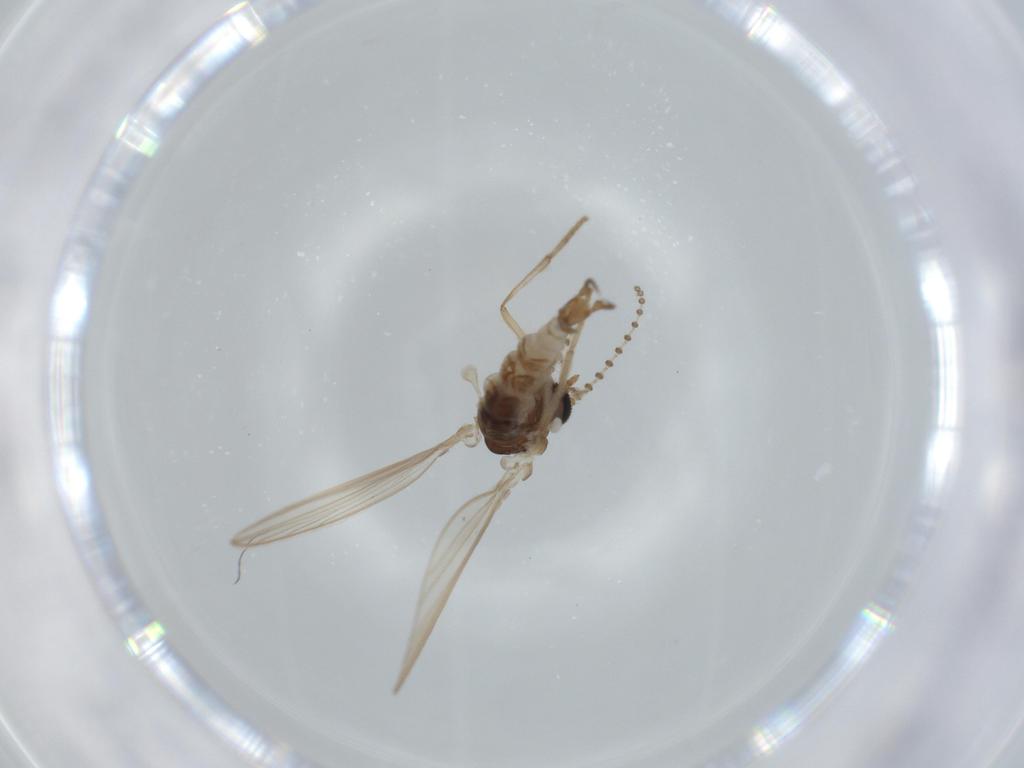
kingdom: Animalia
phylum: Arthropoda
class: Insecta
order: Diptera
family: Psychodidae
